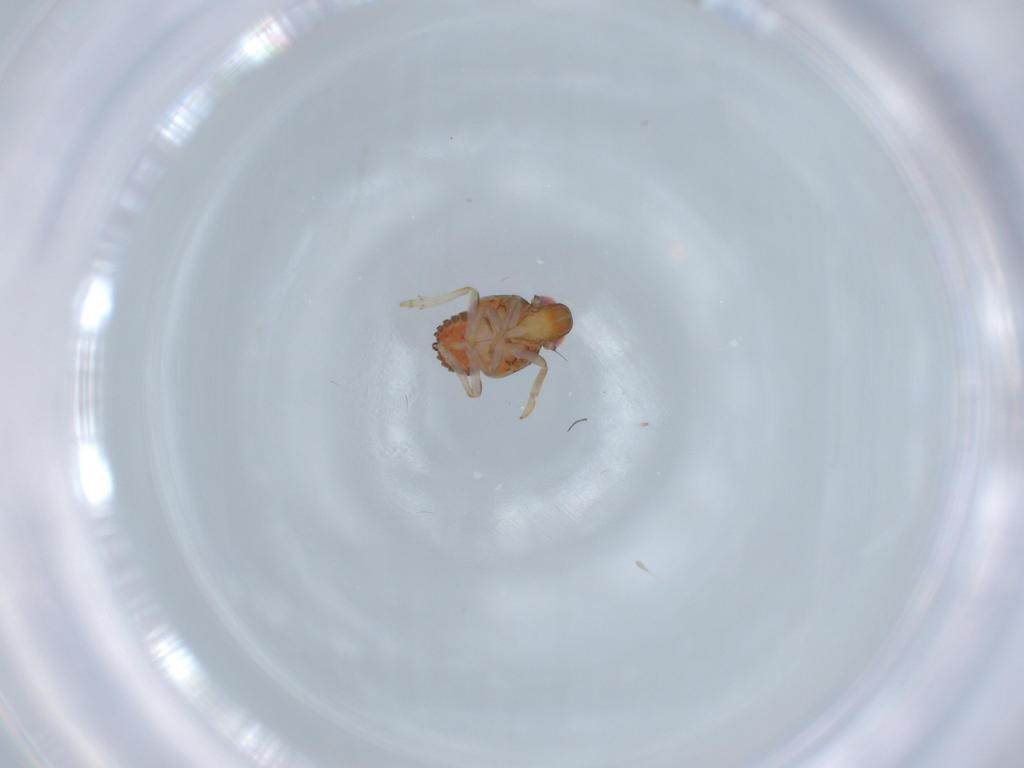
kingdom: Animalia
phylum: Arthropoda
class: Insecta
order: Hemiptera
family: Issidae
